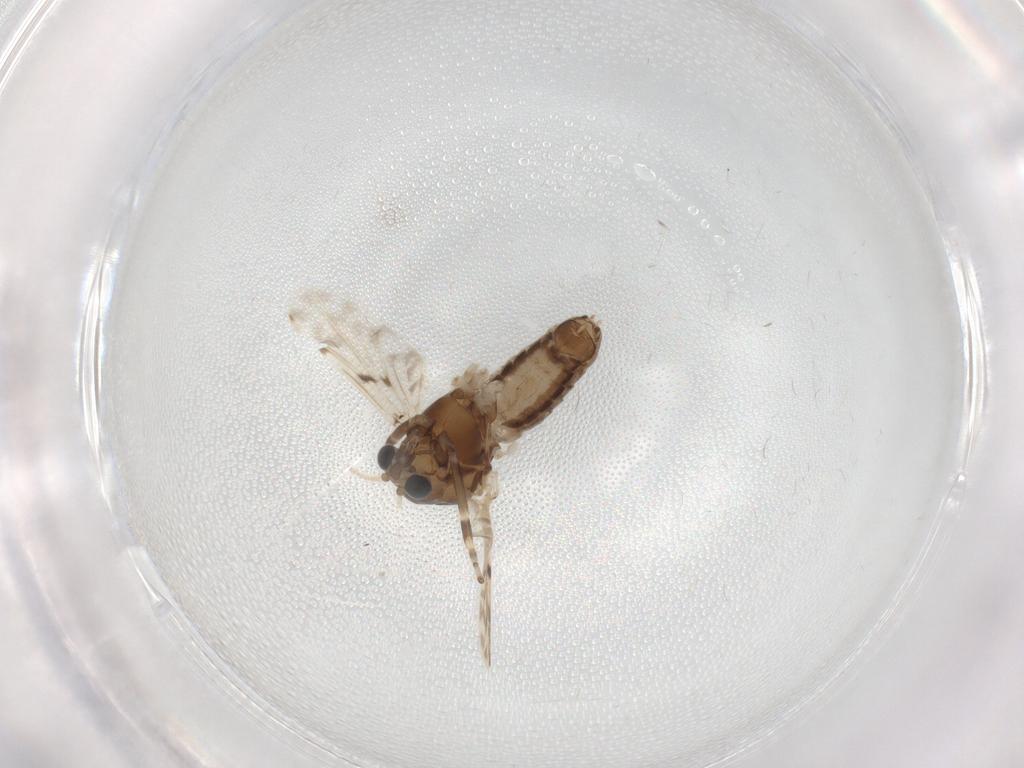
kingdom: Animalia
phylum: Arthropoda
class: Insecta
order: Diptera
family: Chironomidae
